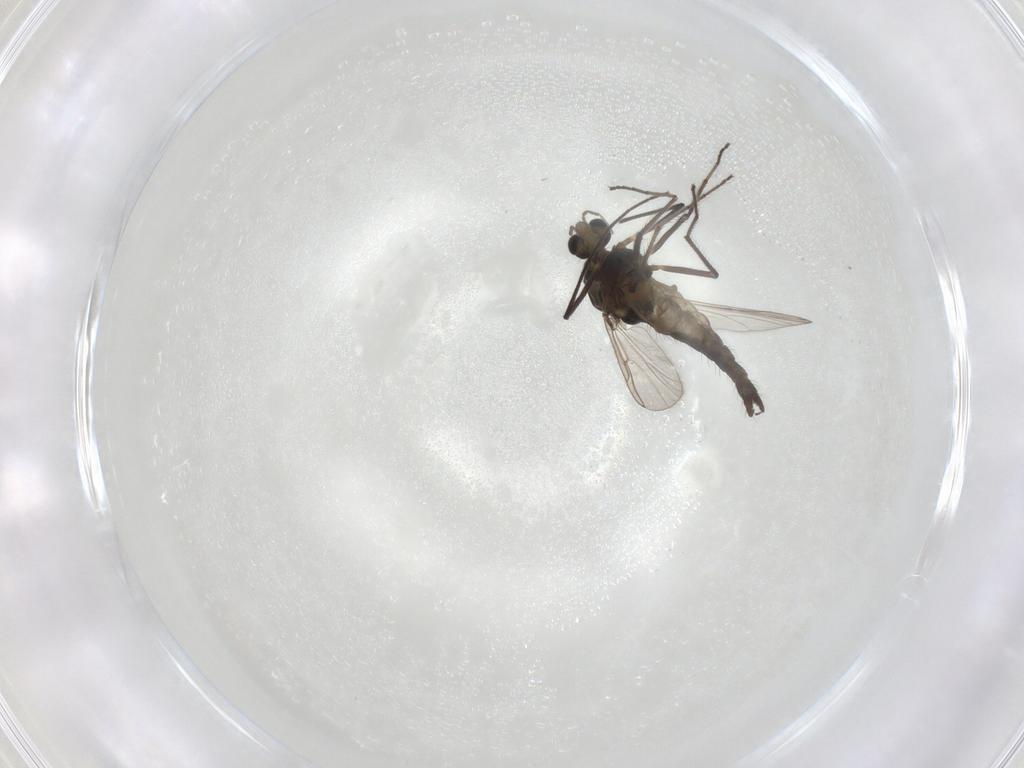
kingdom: Animalia
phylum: Arthropoda
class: Insecta
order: Diptera
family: Chironomidae
